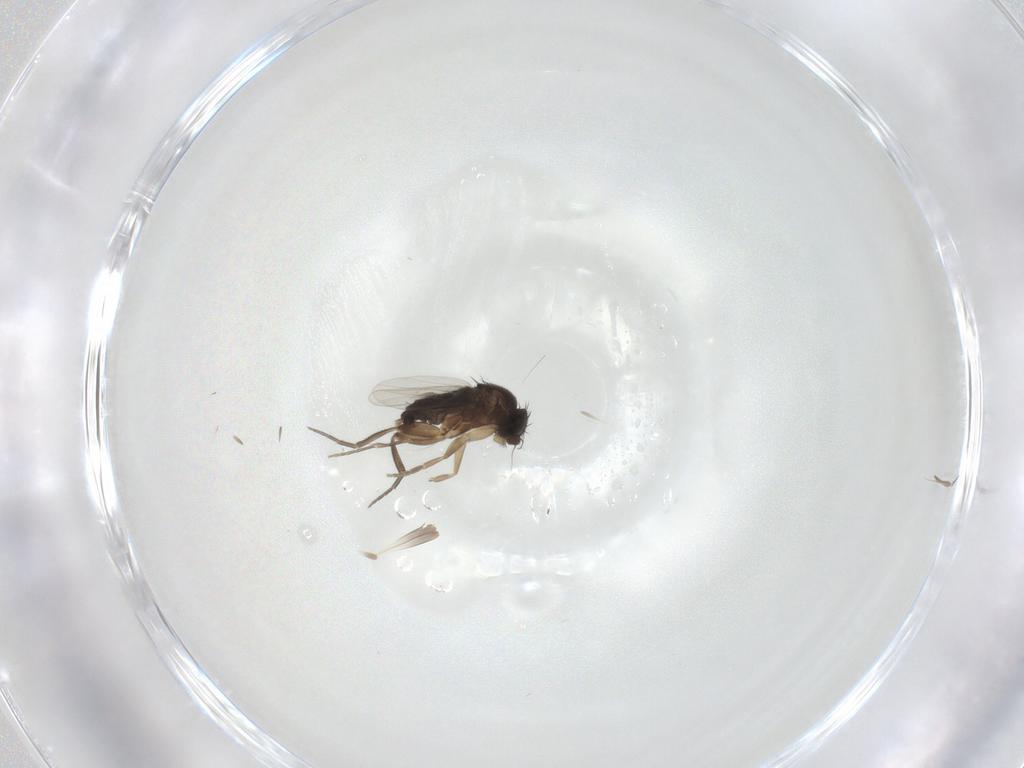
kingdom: Animalia
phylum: Arthropoda
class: Insecta
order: Diptera
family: Phoridae
